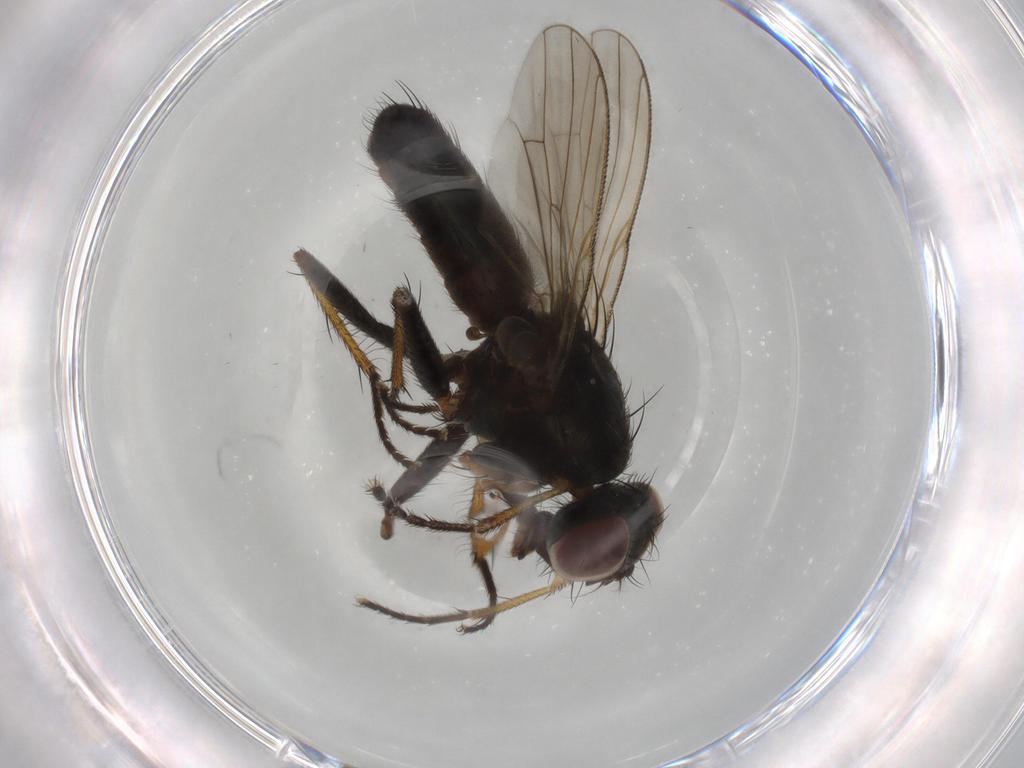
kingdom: Animalia
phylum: Arthropoda
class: Insecta
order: Diptera
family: Muscidae
